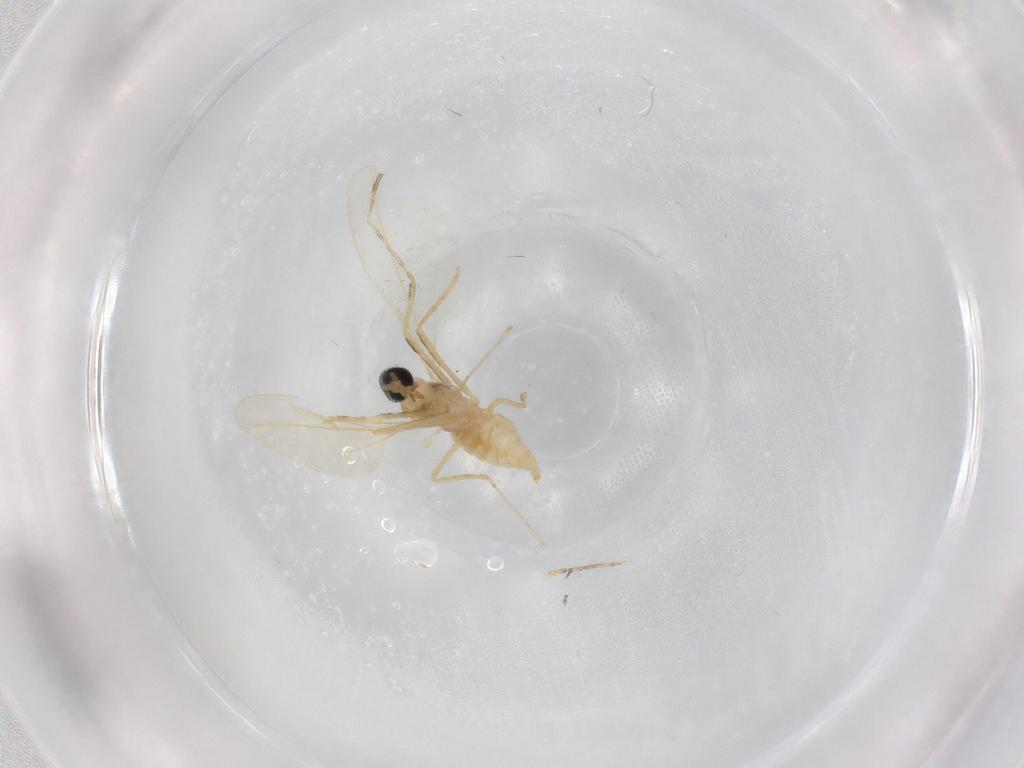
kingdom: Animalia
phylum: Arthropoda
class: Insecta
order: Diptera
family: Cecidomyiidae
